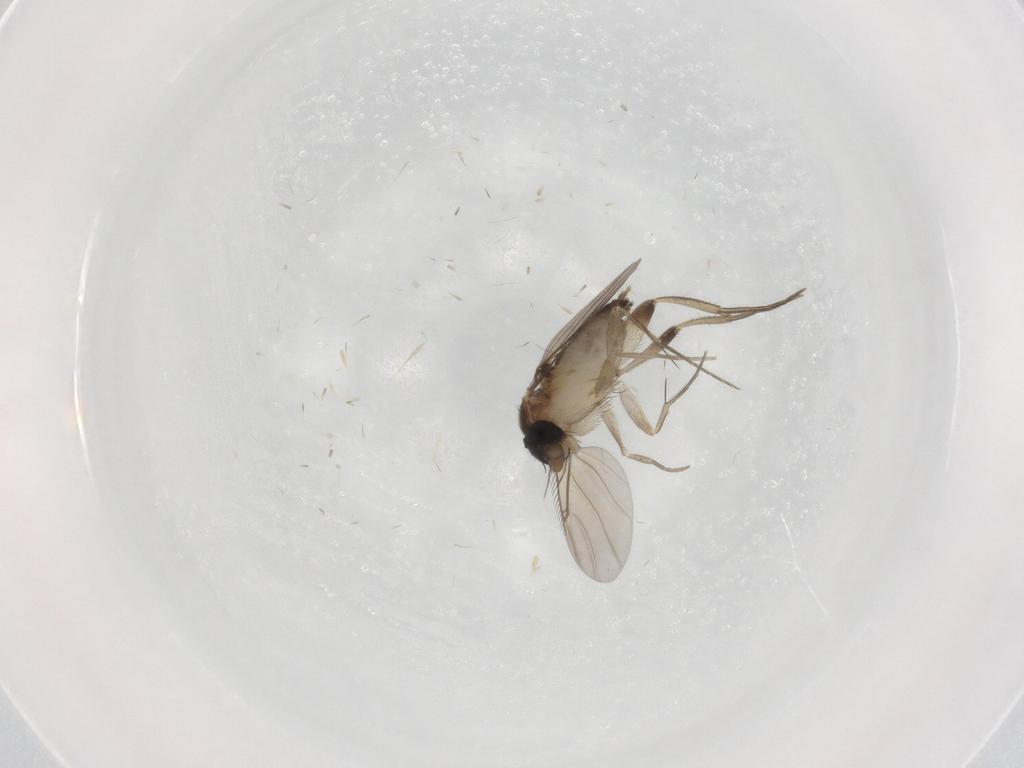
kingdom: Animalia
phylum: Arthropoda
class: Insecta
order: Diptera
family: Phoridae
